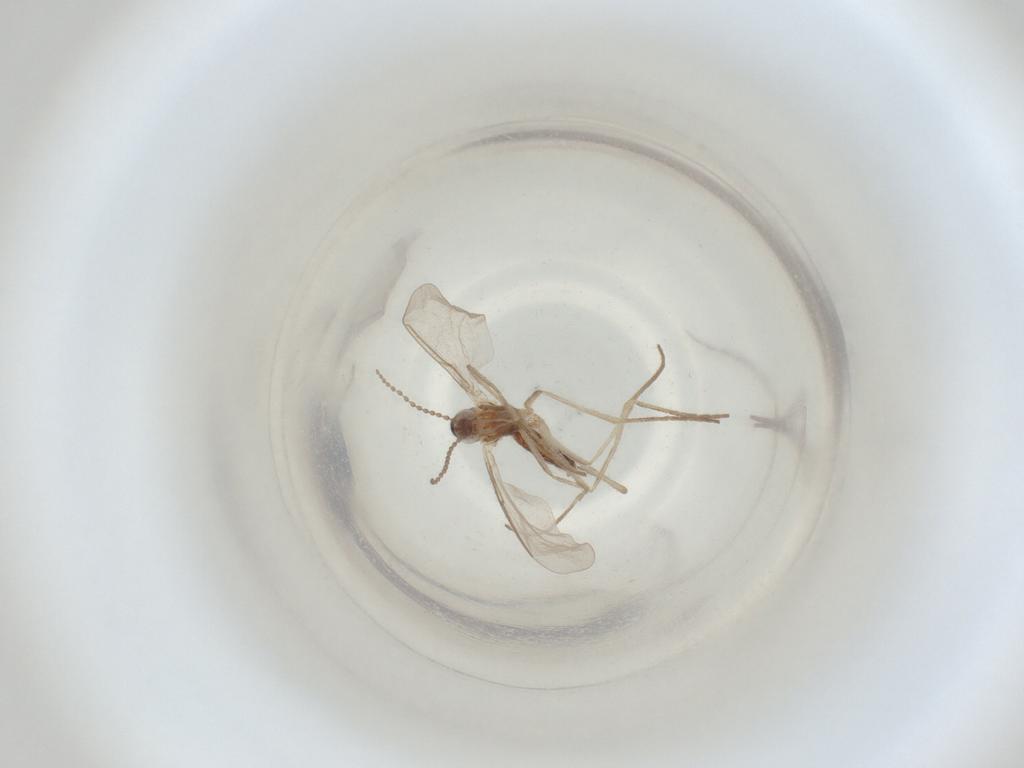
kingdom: Animalia
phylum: Arthropoda
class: Insecta
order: Diptera
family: Cecidomyiidae
